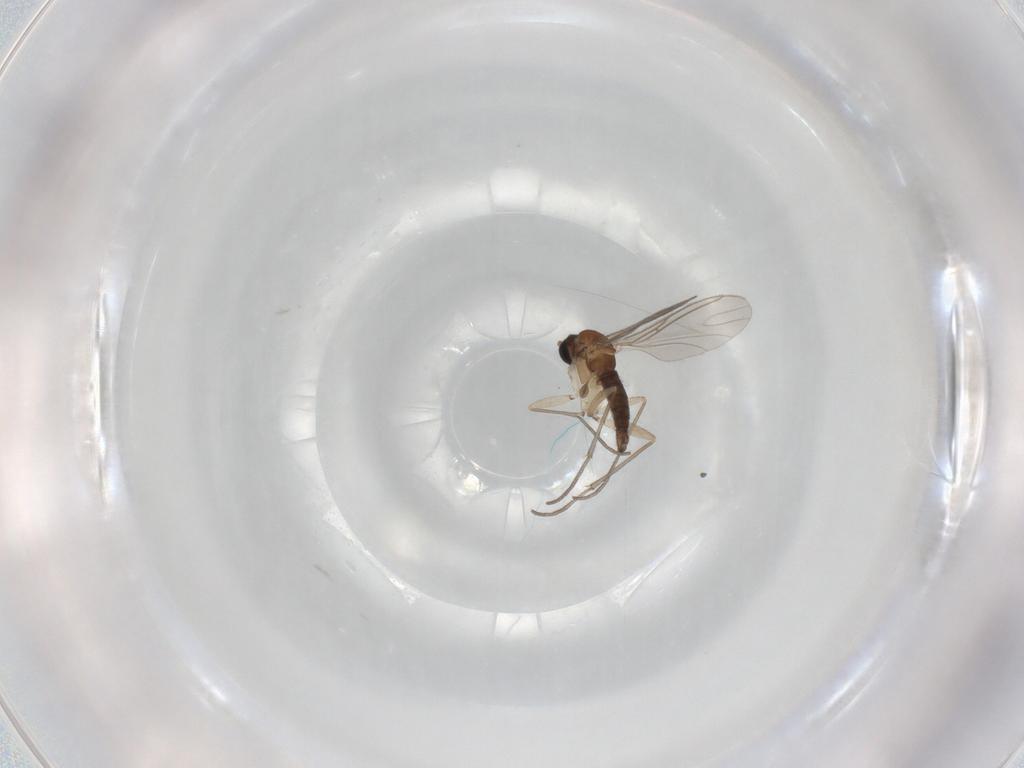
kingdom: Animalia
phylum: Arthropoda
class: Insecta
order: Diptera
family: Sciaridae
